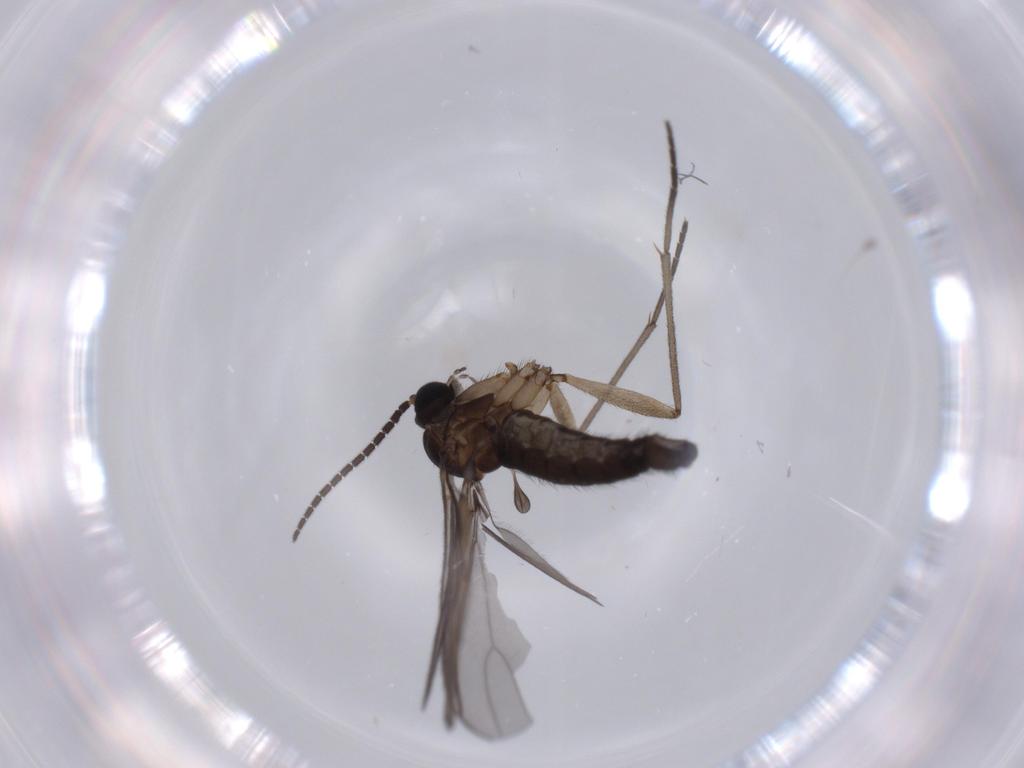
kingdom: Animalia
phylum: Arthropoda
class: Insecta
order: Diptera
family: Sciaridae
